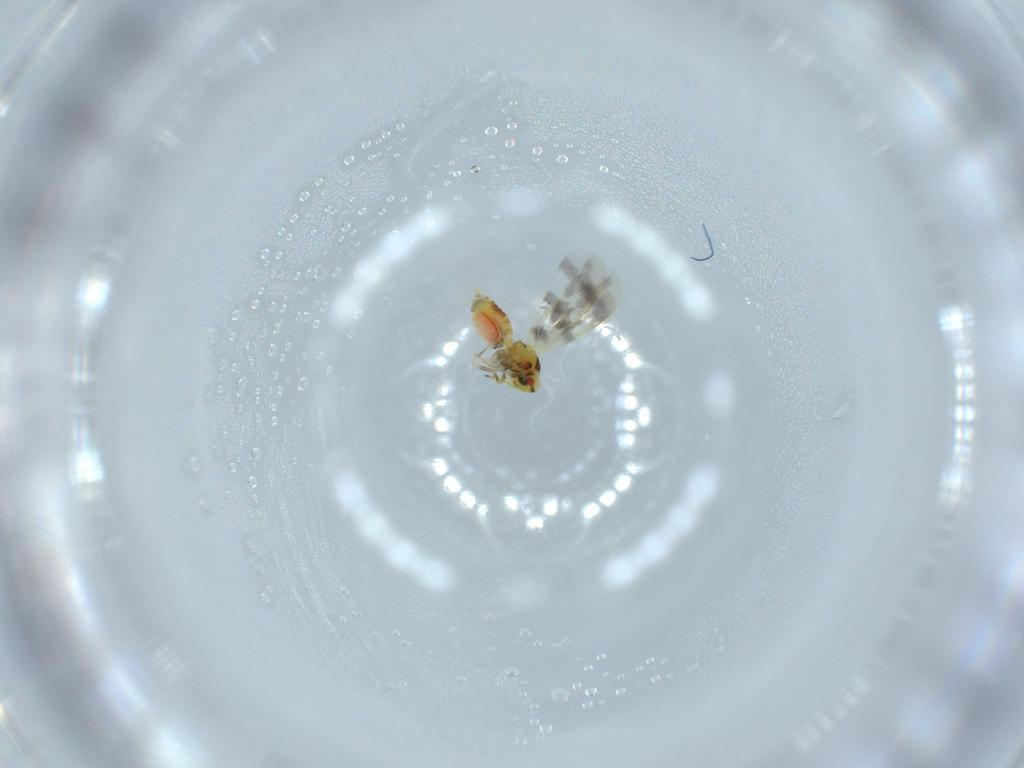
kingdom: Animalia
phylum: Arthropoda
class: Insecta
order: Hemiptera
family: Aleyrodidae
